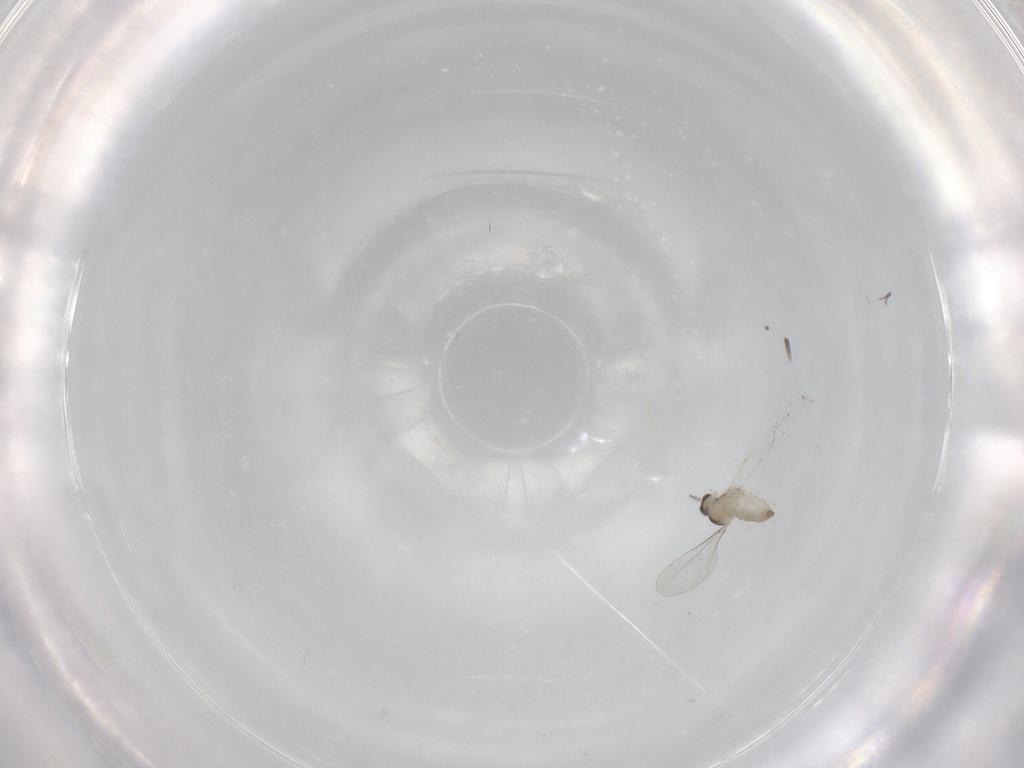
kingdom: Animalia
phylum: Arthropoda
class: Insecta
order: Diptera
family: Cecidomyiidae
